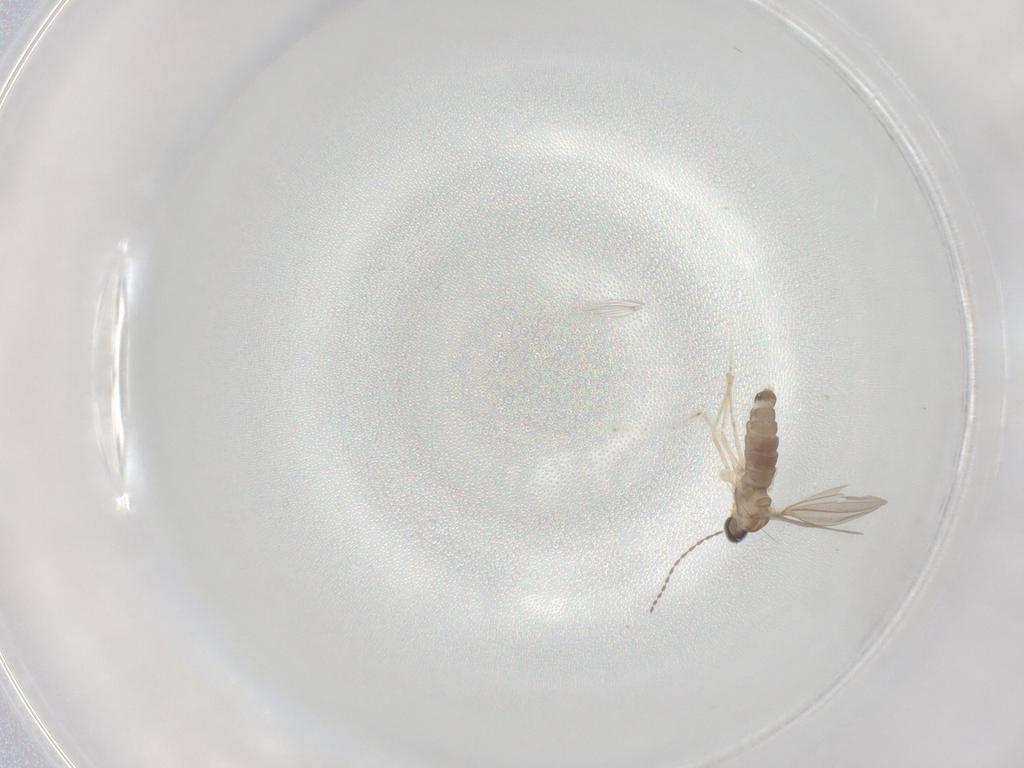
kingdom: Animalia
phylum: Arthropoda
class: Insecta
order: Diptera
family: Cecidomyiidae
